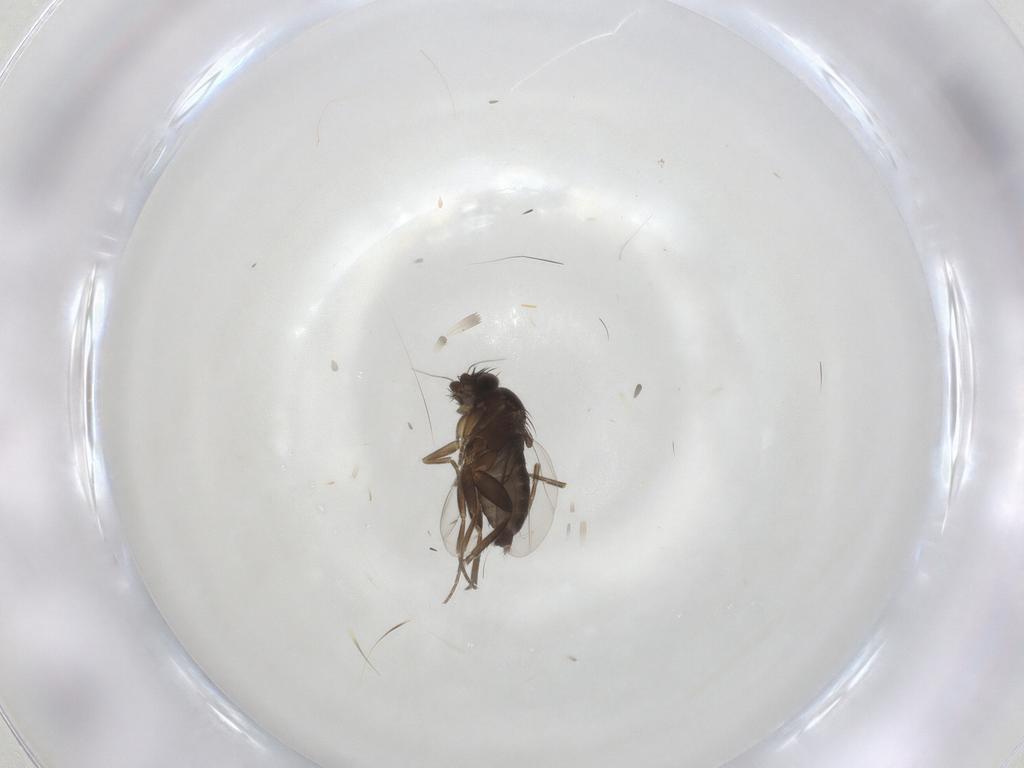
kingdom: Animalia
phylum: Arthropoda
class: Insecta
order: Diptera
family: Phoridae
